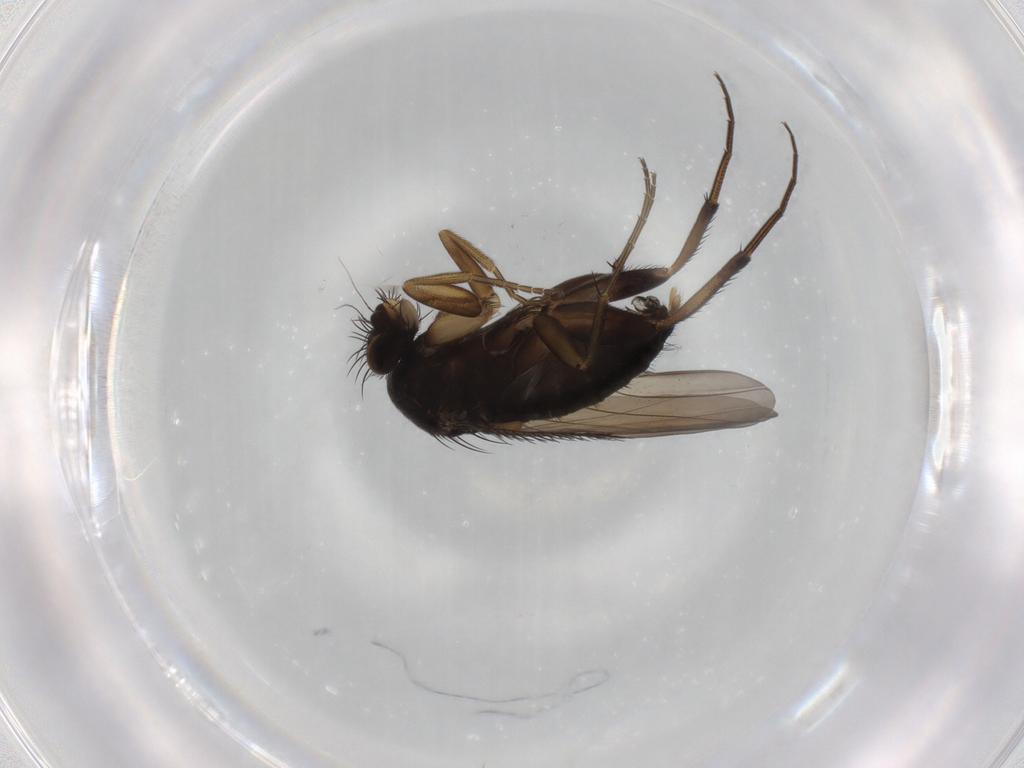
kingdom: Animalia
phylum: Arthropoda
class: Insecta
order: Diptera
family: Phoridae
